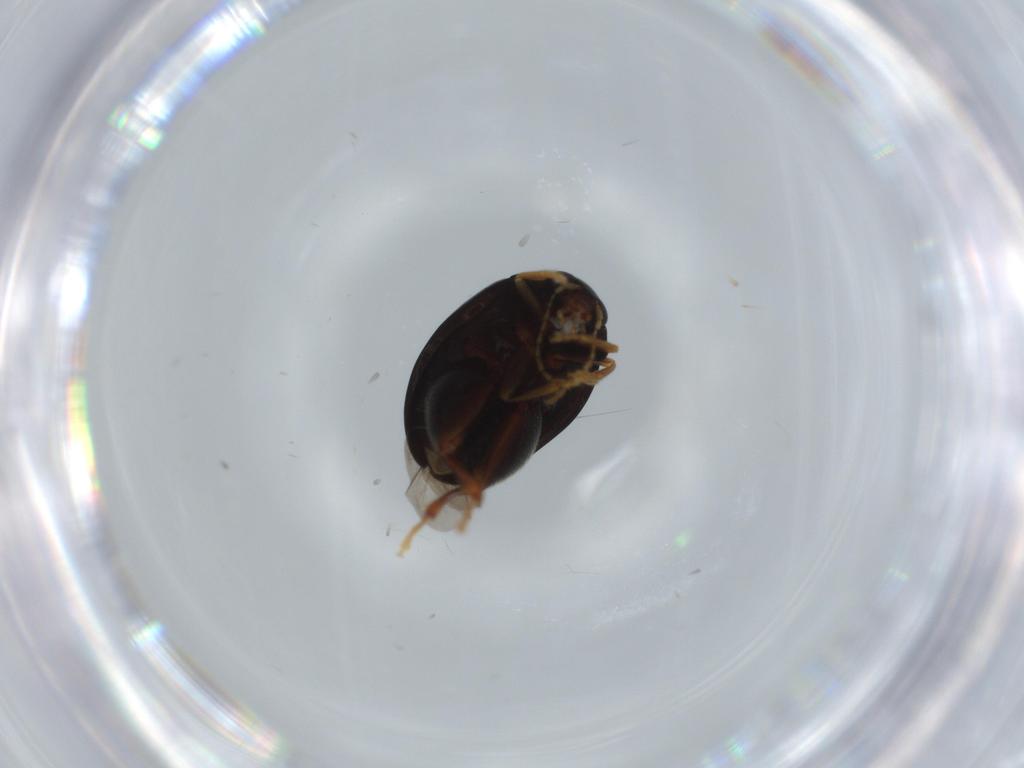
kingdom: Animalia
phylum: Arthropoda
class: Insecta
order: Coleoptera
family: Chrysomelidae
